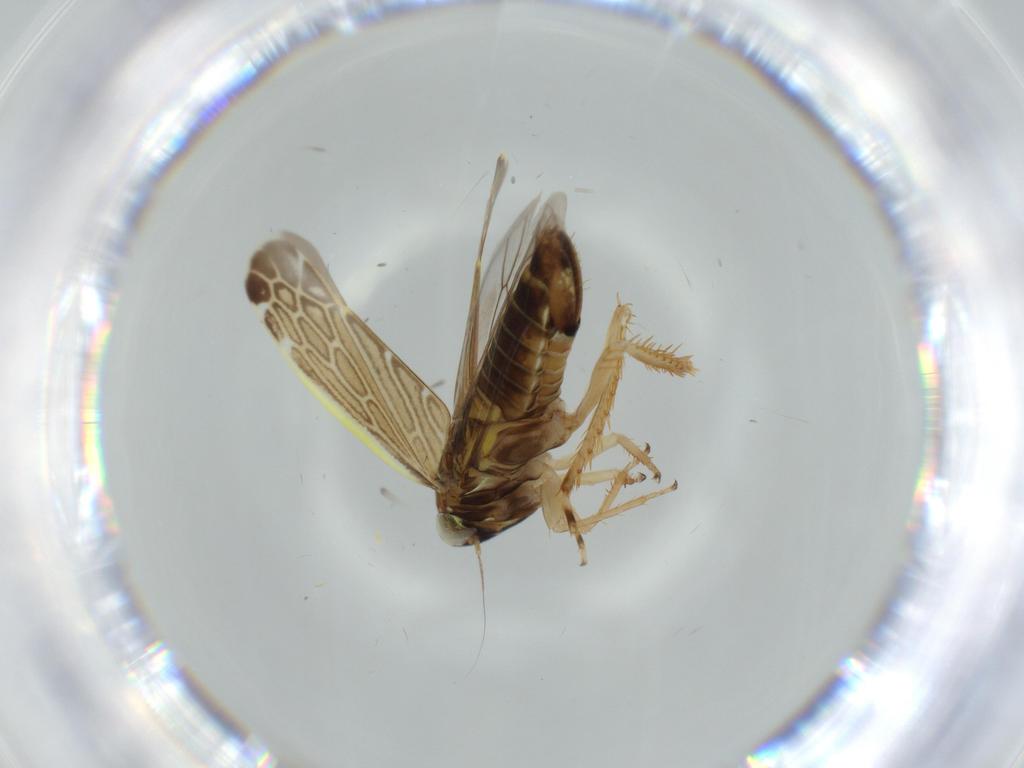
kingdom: Animalia
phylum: Arthropoda
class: Insecta
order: Hemiptera
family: Cicadellidae
